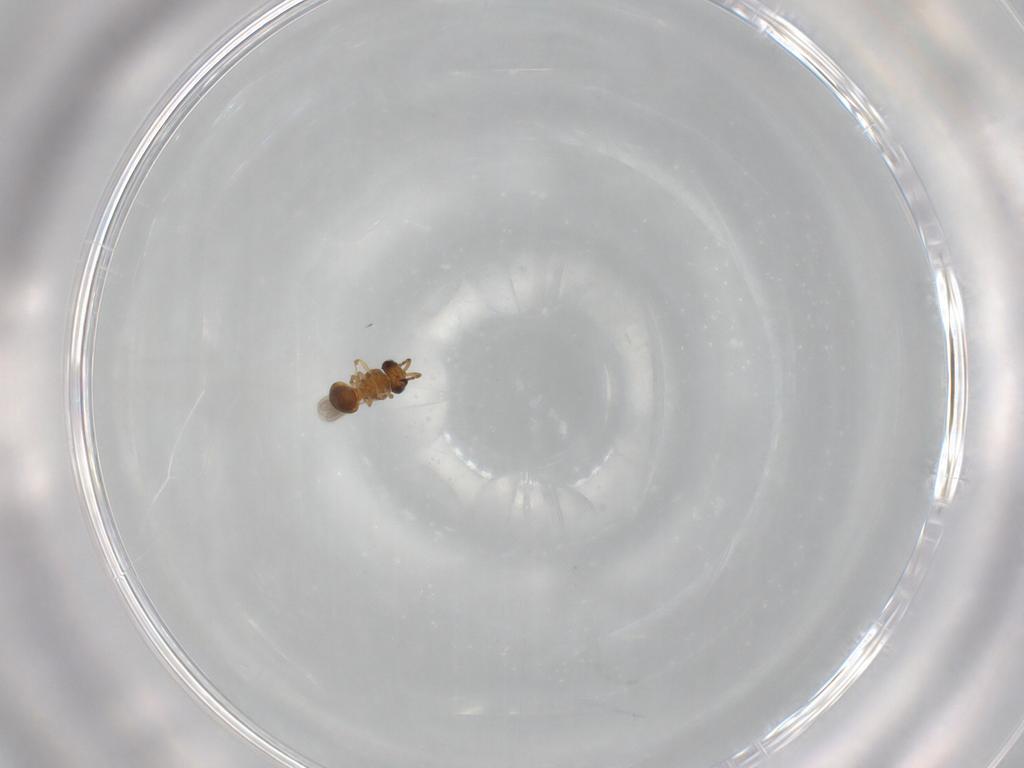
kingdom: Animalia
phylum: Arthropoda
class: Insecta
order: Hymenoptera
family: Scelionidae
